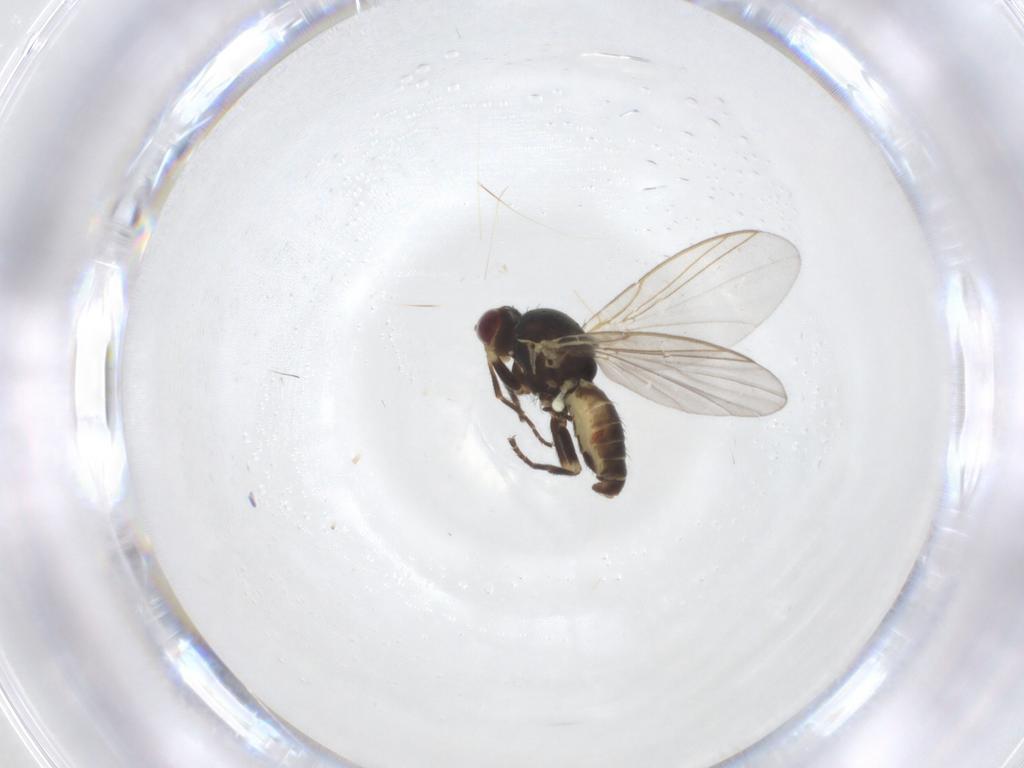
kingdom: Animalia
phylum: Arthropoda
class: Insecta
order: Diptera
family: Cecidomyiidae
